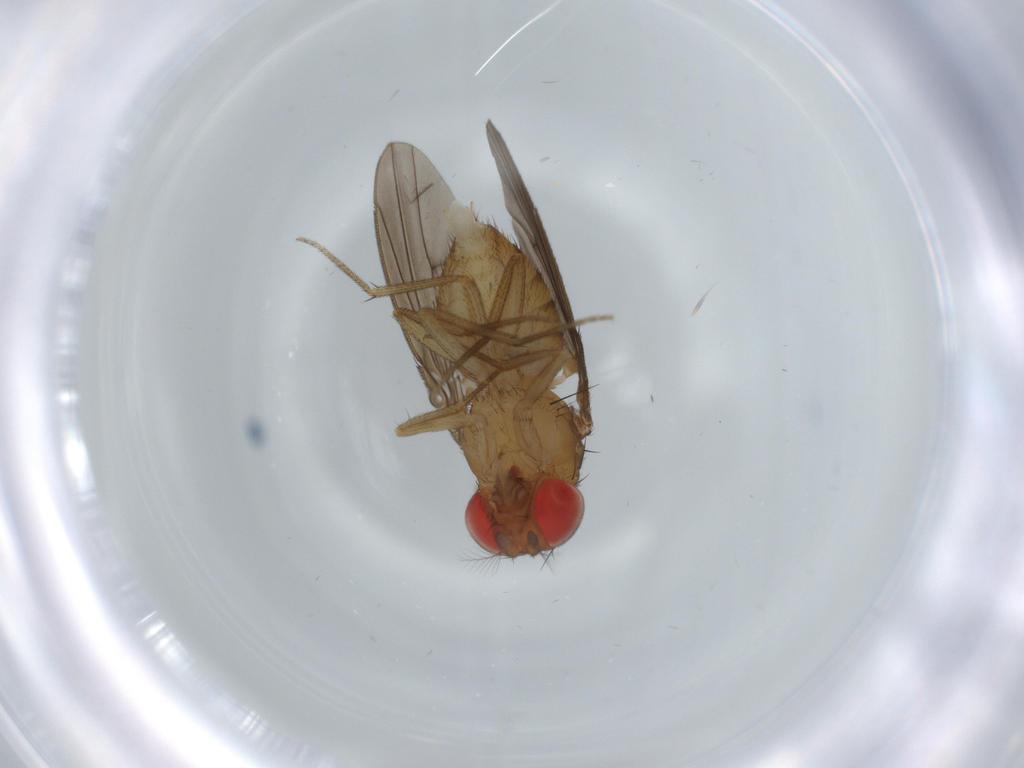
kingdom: Animalia
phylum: Arthropoda
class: Insecta
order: Diptera
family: Drosophilidae
